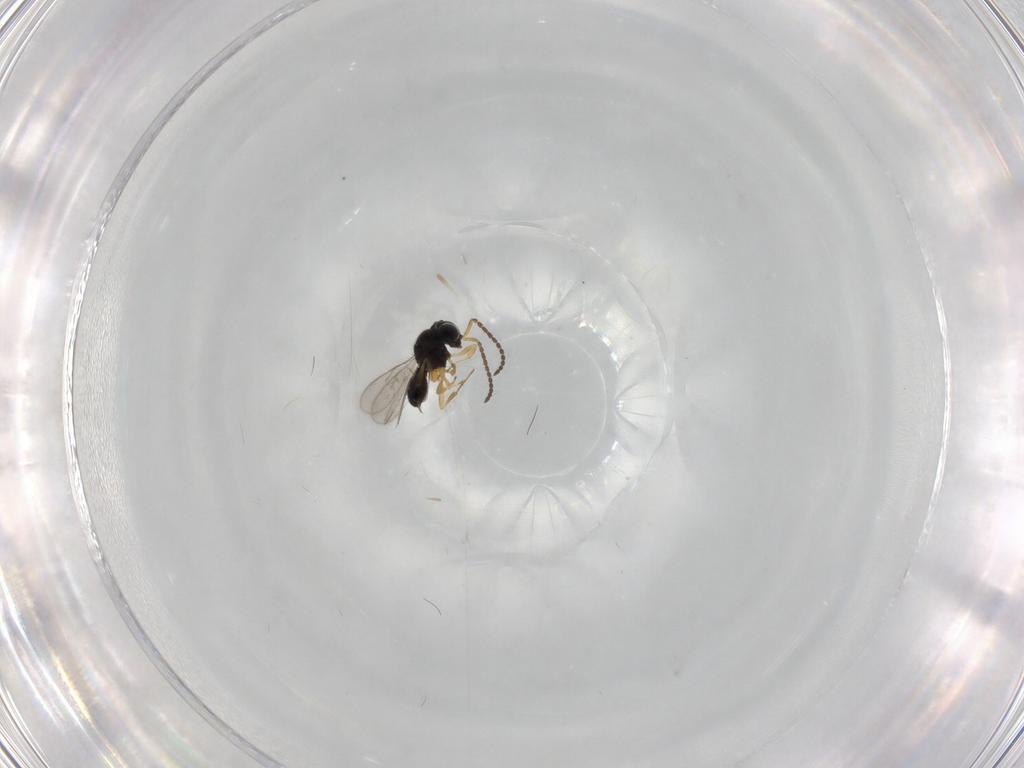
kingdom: Animalia
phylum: Arthropoda
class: Insecta
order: Hymenoptera
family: Scelionidae
